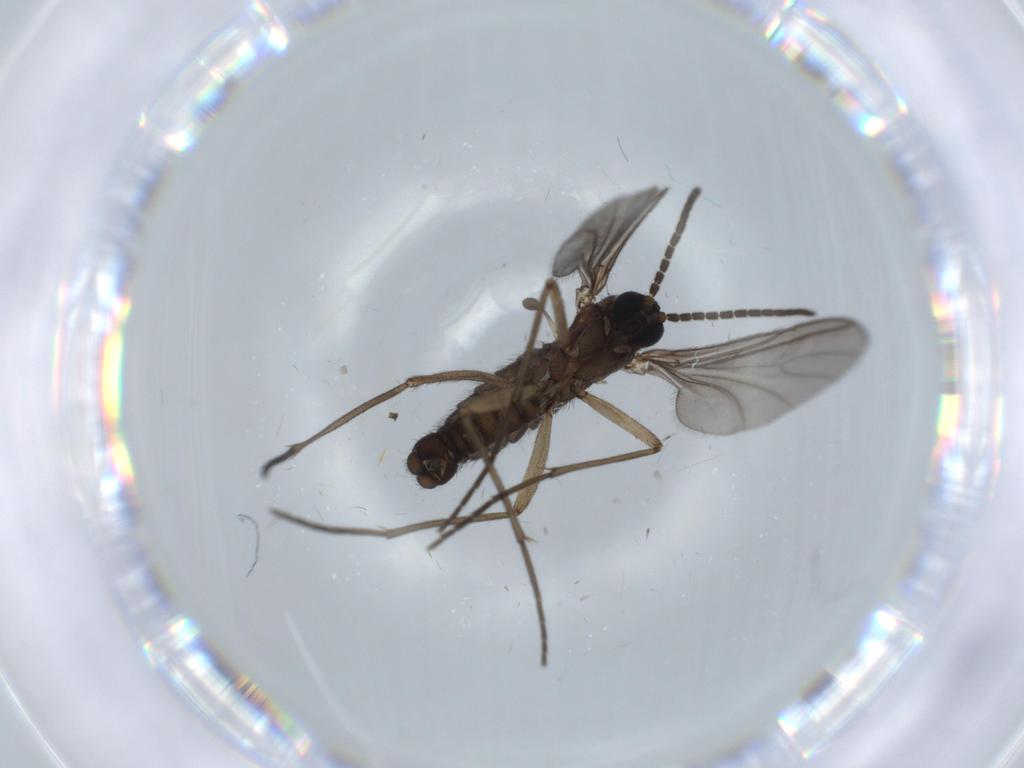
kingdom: Animalia
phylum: Arthropoda
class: Insecta
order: Diptera
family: Sciaridae
